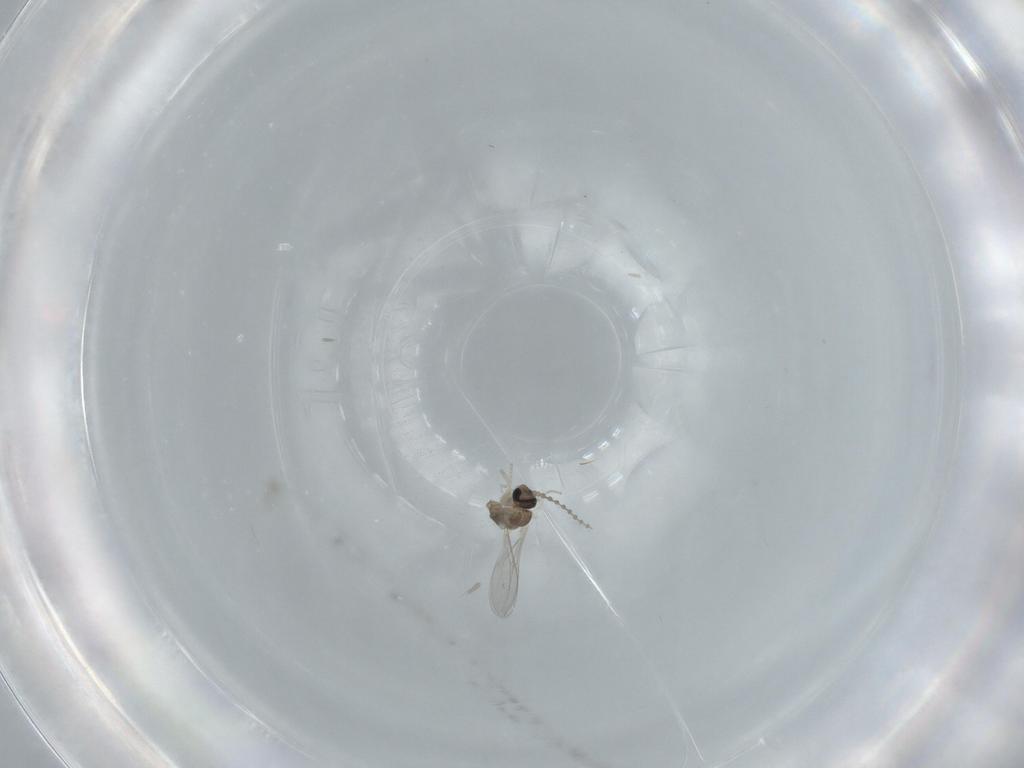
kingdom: Animalia
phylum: Arthropoda
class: Insecta
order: Diptera
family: Cecidomyiidae
